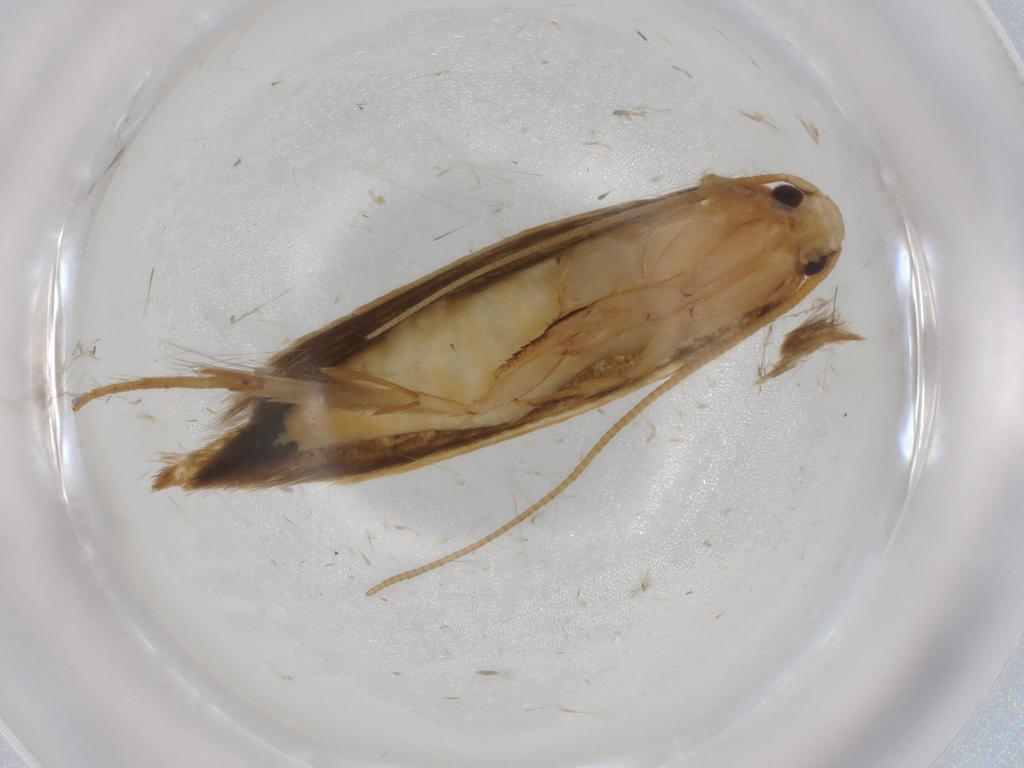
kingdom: Animalia
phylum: Arthropoda
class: Insecta
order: Lepidoptera
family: Tineidae
